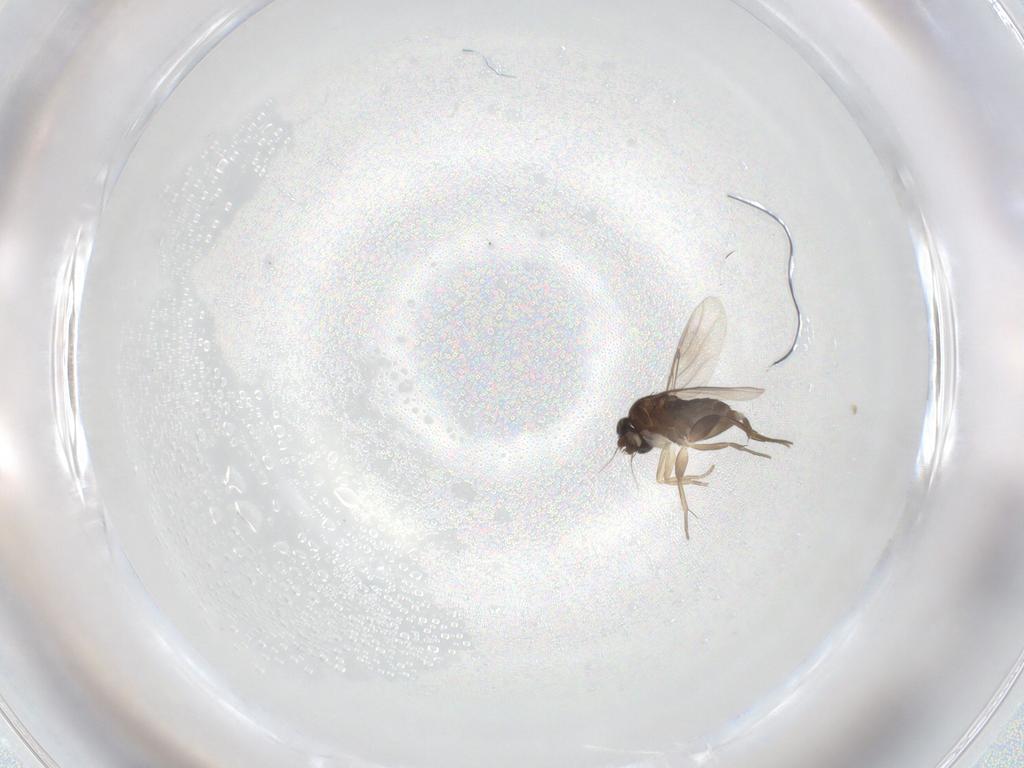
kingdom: Animalia
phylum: Arthropoda
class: Insecta
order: Diptera
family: Phoridae
